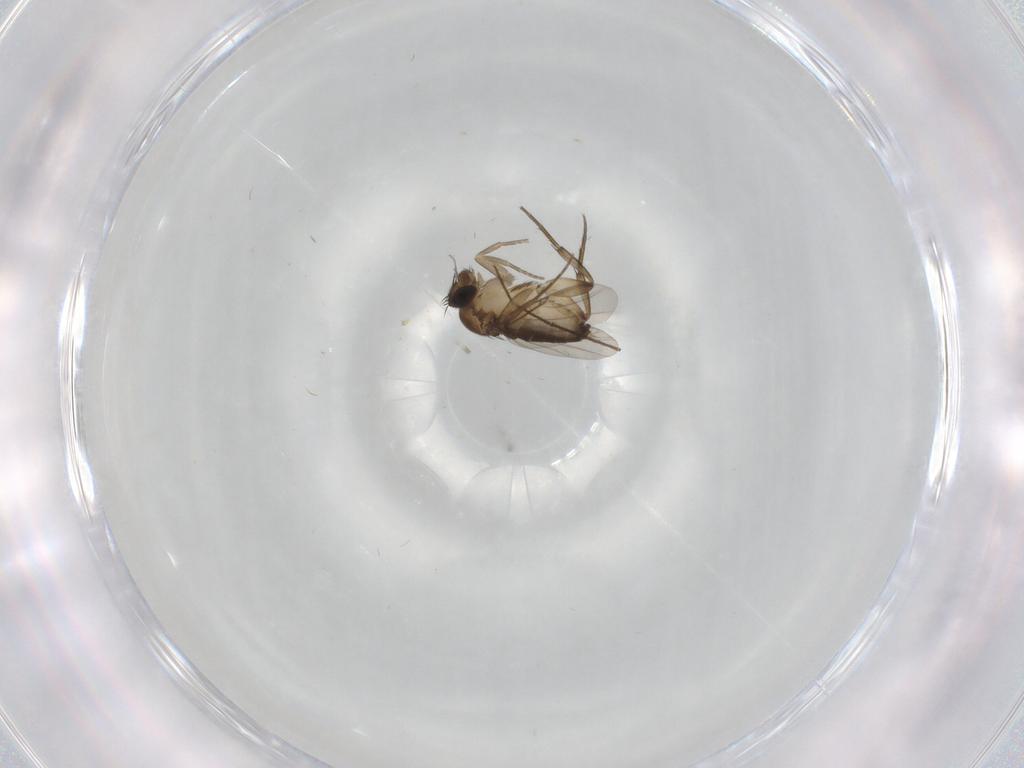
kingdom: Animalia
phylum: Arthropoda
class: Insecta
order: Diptera
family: Phoridae
